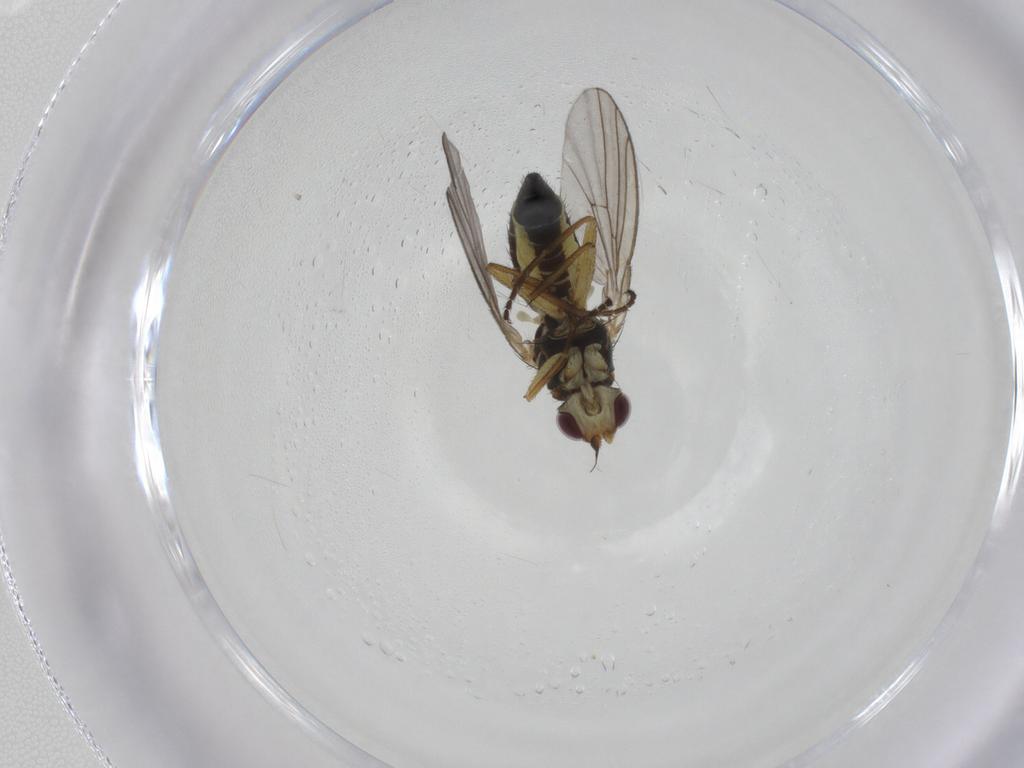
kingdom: Animalia
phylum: Arthropoda
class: Insecta
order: Diptera
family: Agromyzidae
